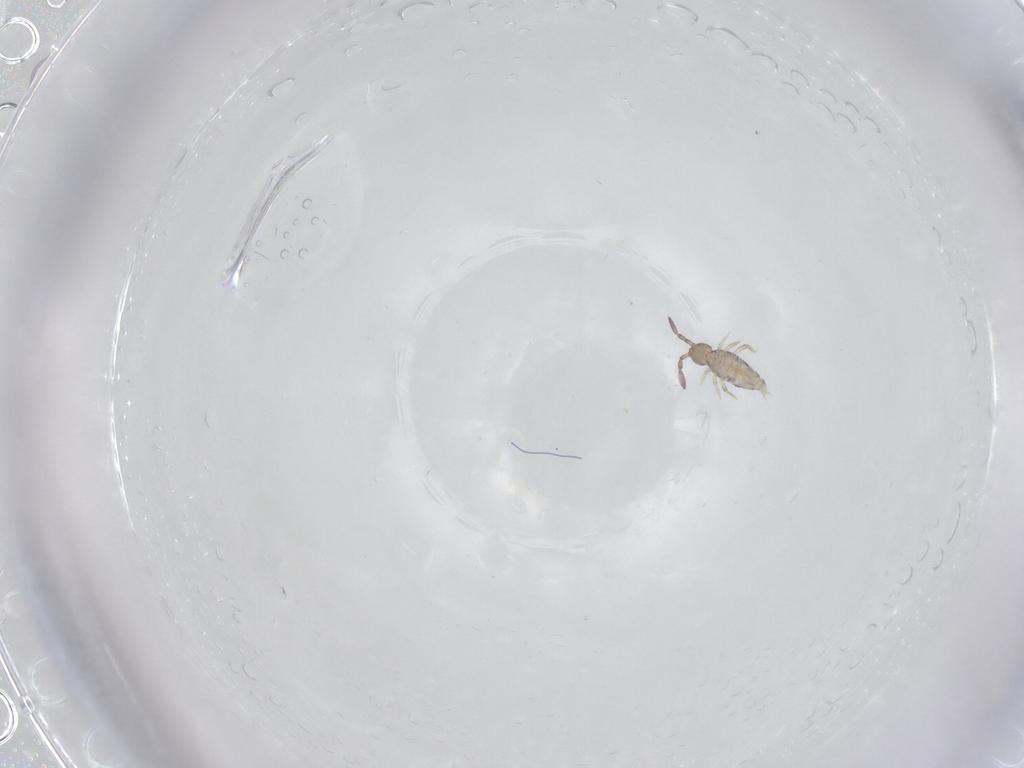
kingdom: Animalia
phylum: Arthropoda
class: Collembola
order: Entomobryomorpha
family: Entomobryidae
